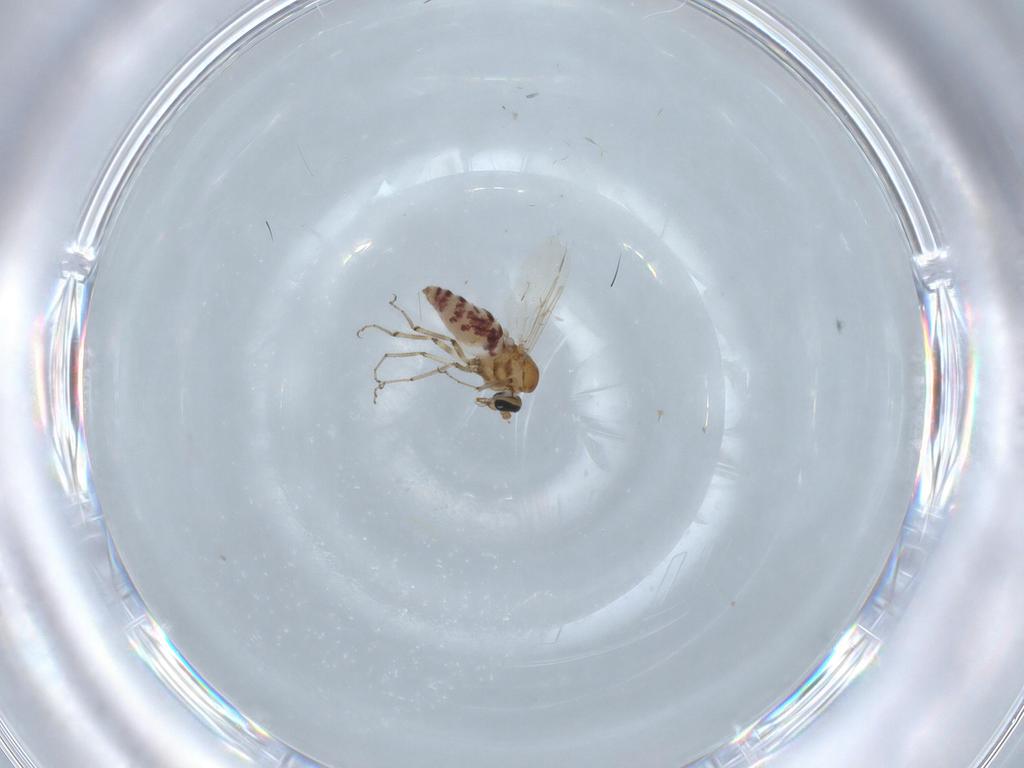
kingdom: Animalia
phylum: Arthropoda
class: Insecta
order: Diptera
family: Ceratopogonidae
